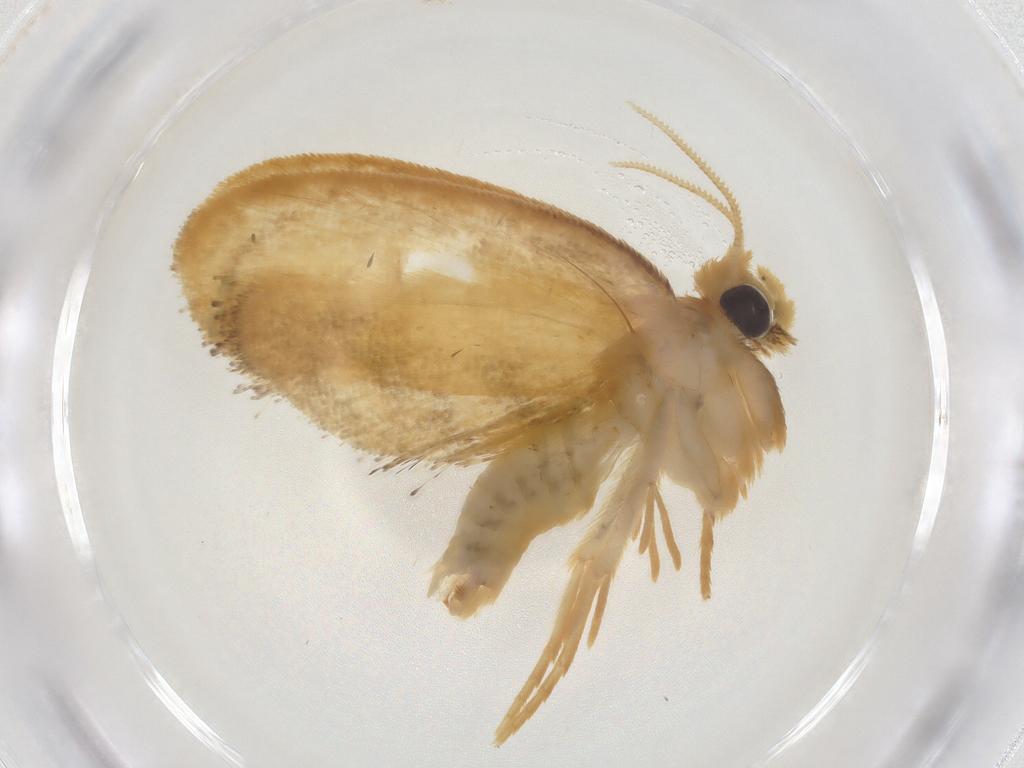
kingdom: Animalia
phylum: Arthropoda
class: Insecta
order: Lepidoptera
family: Psychidae
